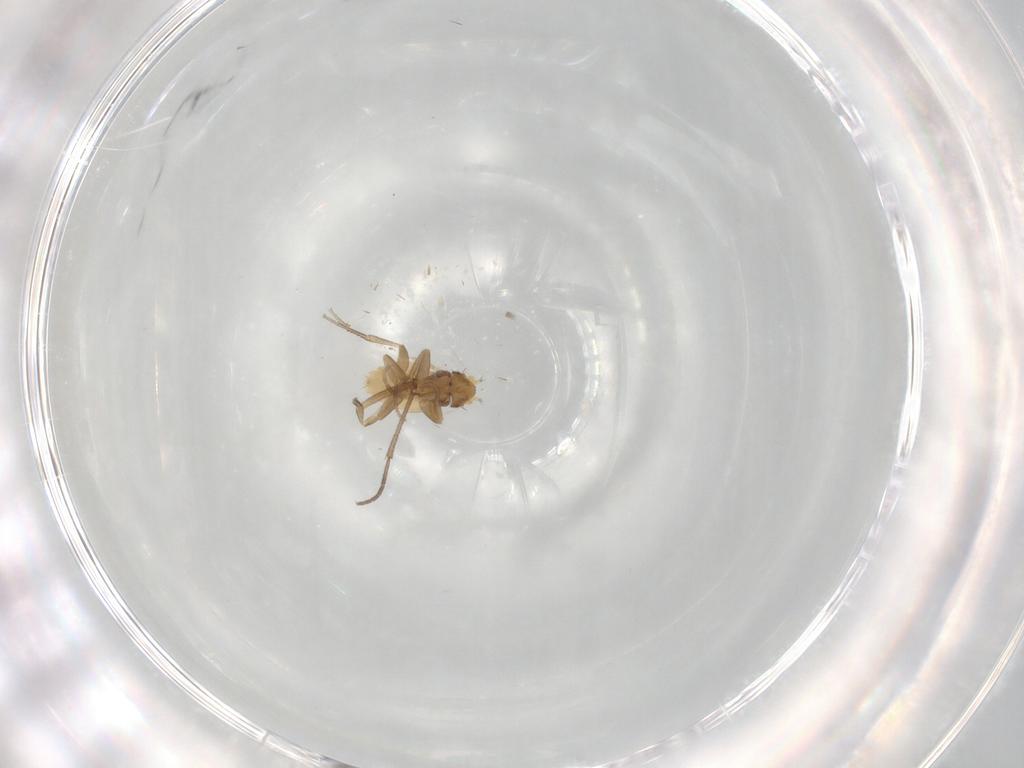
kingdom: Animalia
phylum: Arthropoda
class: Insecta
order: Diptera
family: Phoridae
